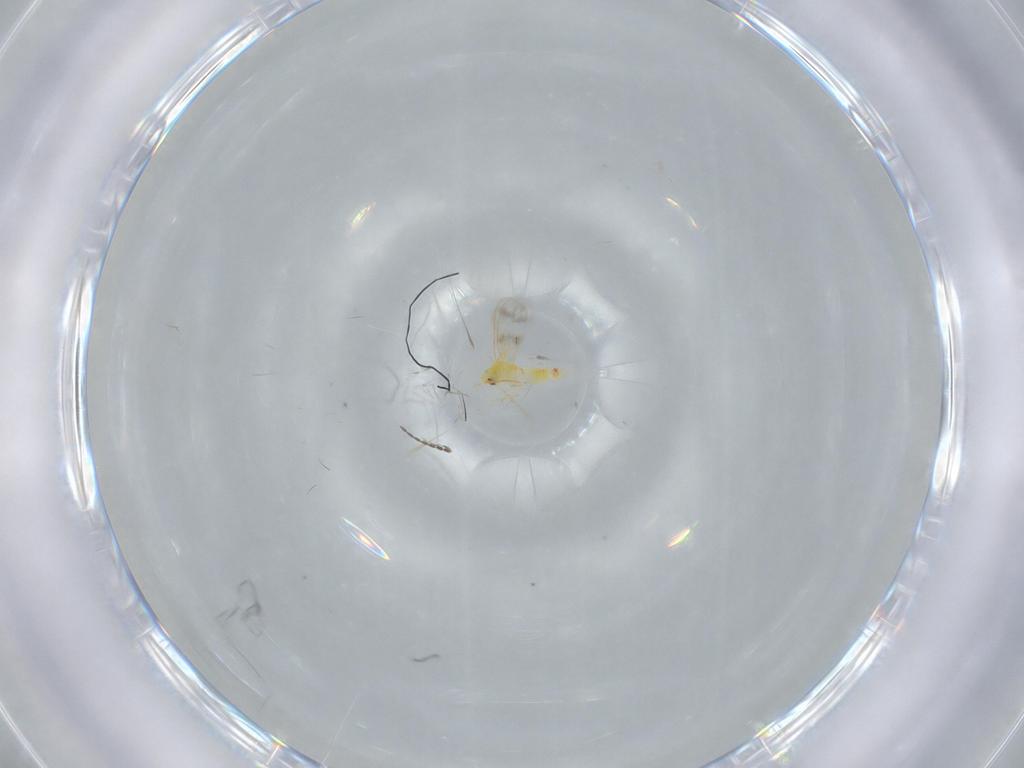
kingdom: Animalia
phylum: Arthropoda
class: Insecta
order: Hemiptera
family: Aleyrodidae
